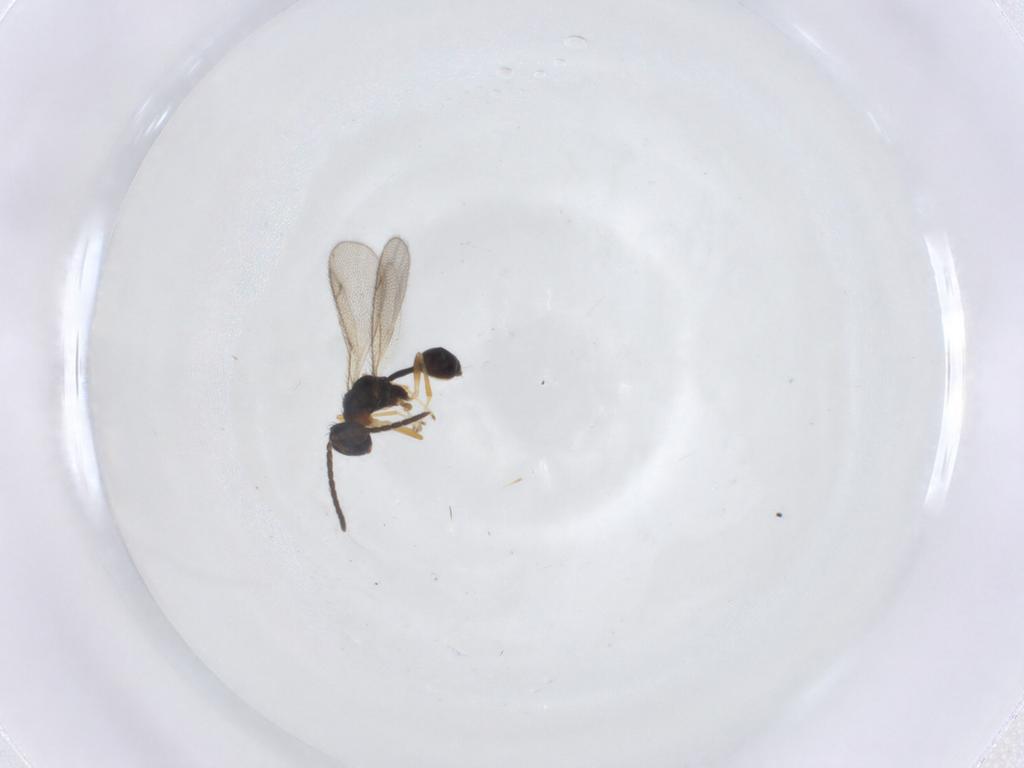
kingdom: Animalia
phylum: Arthropoda
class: Insecta
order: Hymenoptera
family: Diparidae
